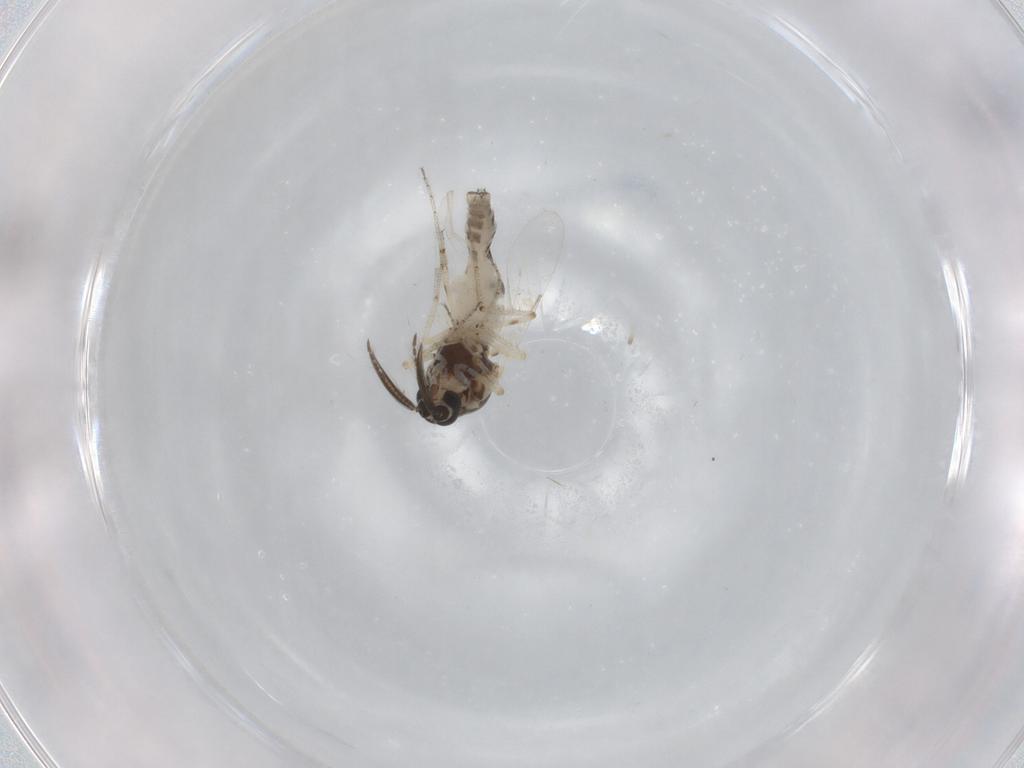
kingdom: Animalia
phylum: Arthropoda
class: Insecta
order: Diptera
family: Ceratopogonidae
